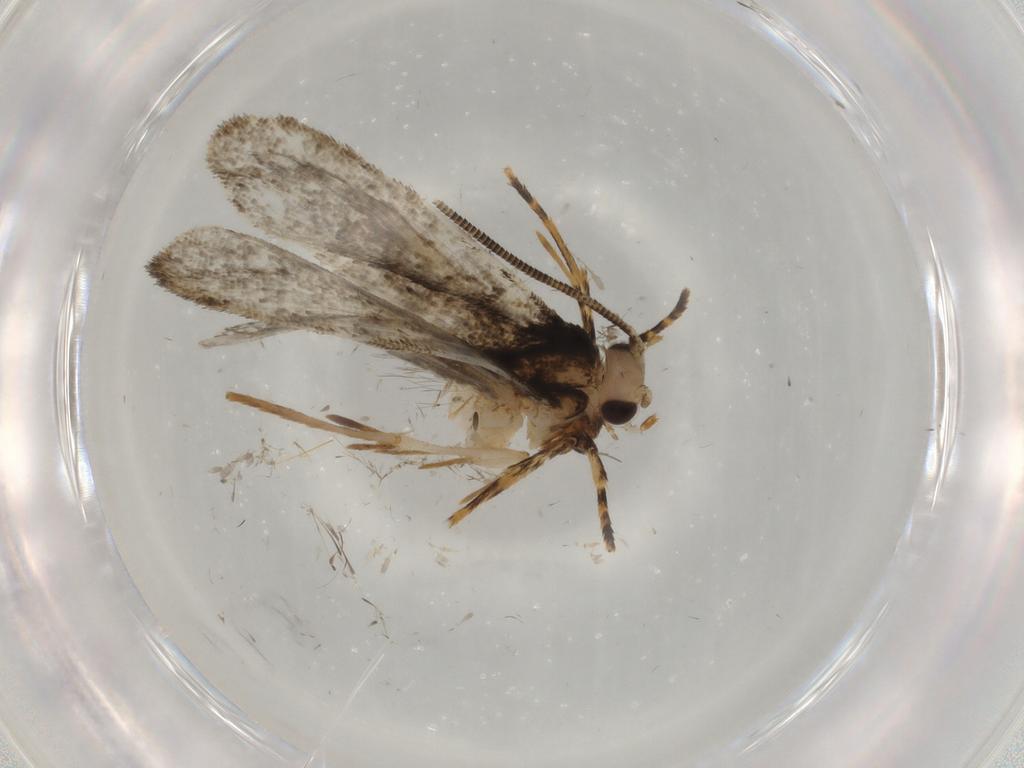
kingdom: Animalia
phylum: Arthropoda
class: Insecta
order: Lepidoptera
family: Tineidae
